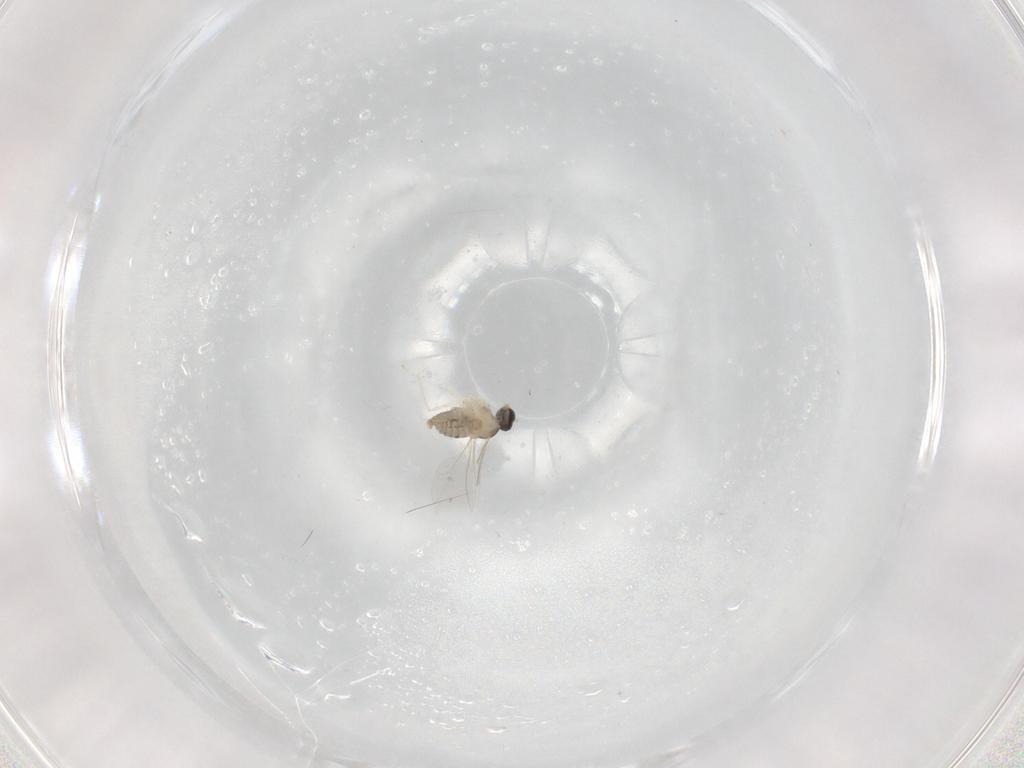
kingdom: Animalia
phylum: Arthropoda
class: Insecta
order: Diptera
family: Cecidomyiidae
